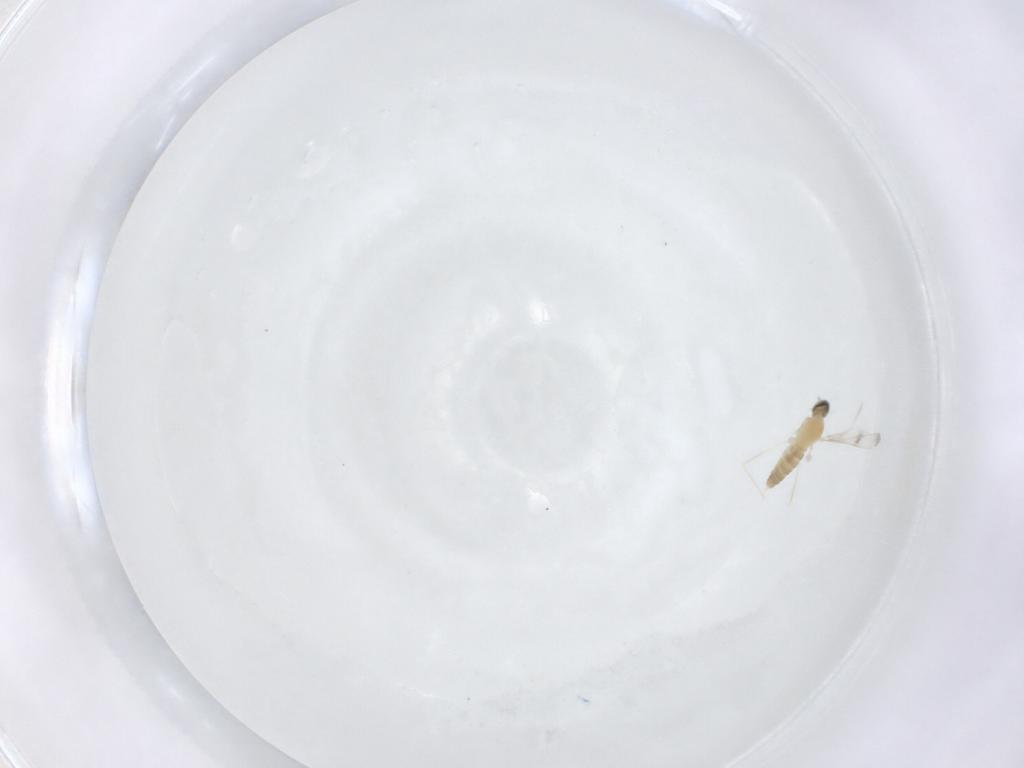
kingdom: Animalia
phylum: Arthropoda
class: Insecta
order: Diptera
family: Cecidomyiidae
